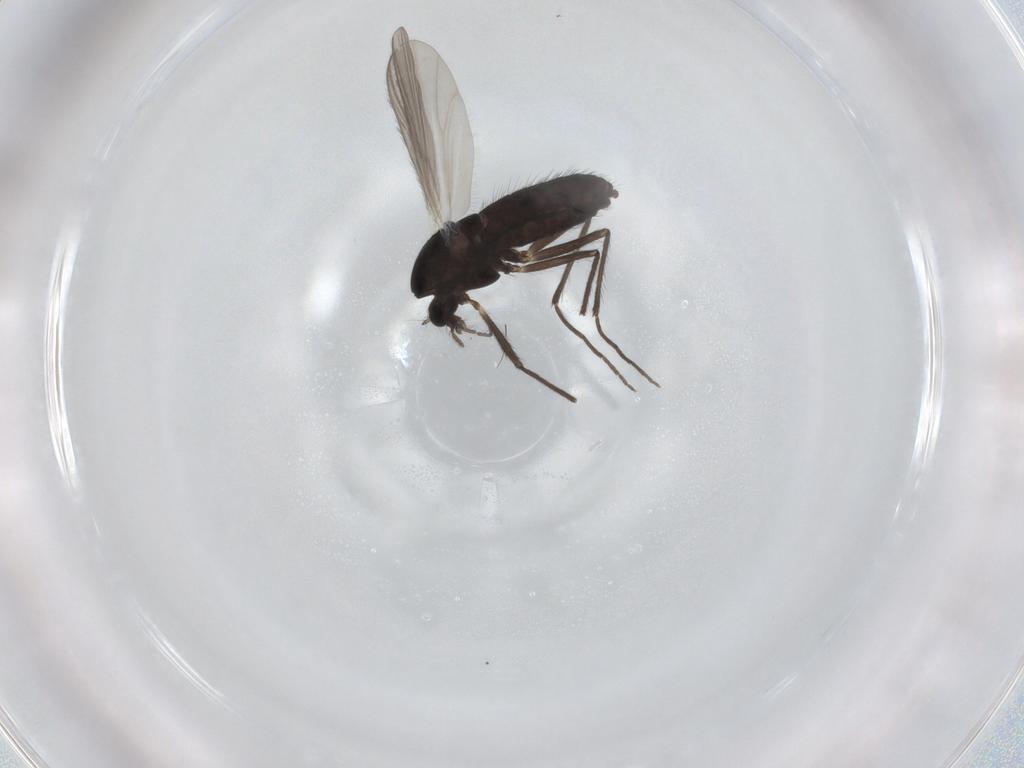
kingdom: Animalia
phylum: Arthropoda
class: Insecta
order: Diptera
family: Chironomidae
